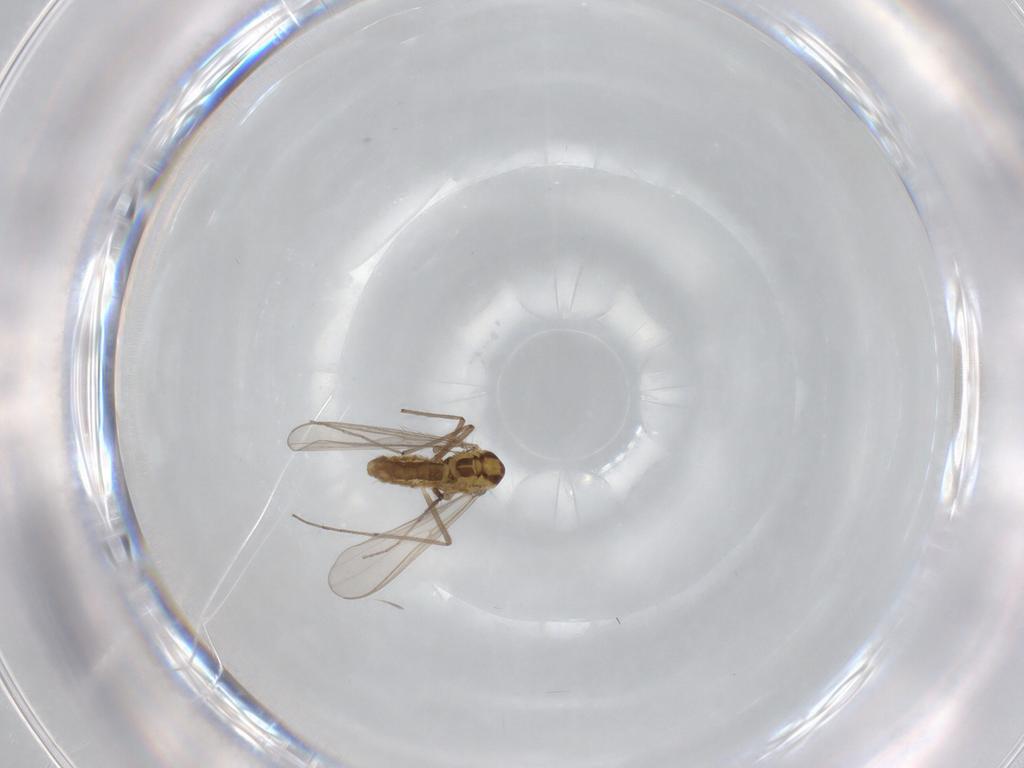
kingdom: Animalia
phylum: Arthropoda
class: Insecta
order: Diptera
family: Chironomidae
